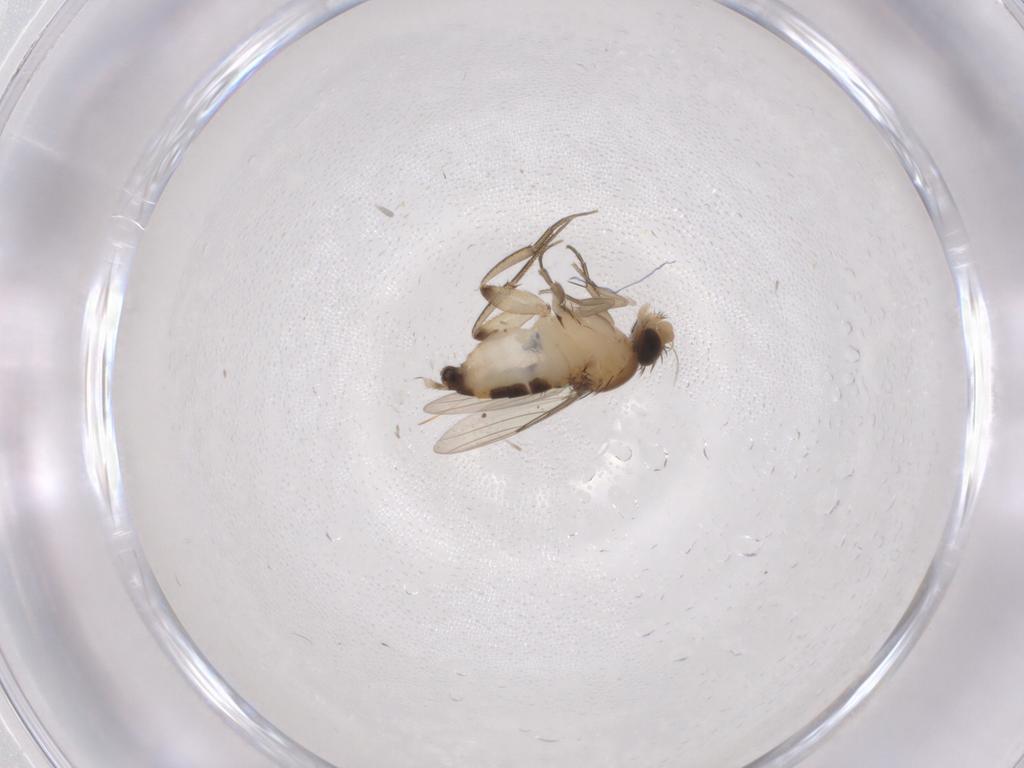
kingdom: Animalia
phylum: Arthropoda
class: Insecta
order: Diptera
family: Phoridae
